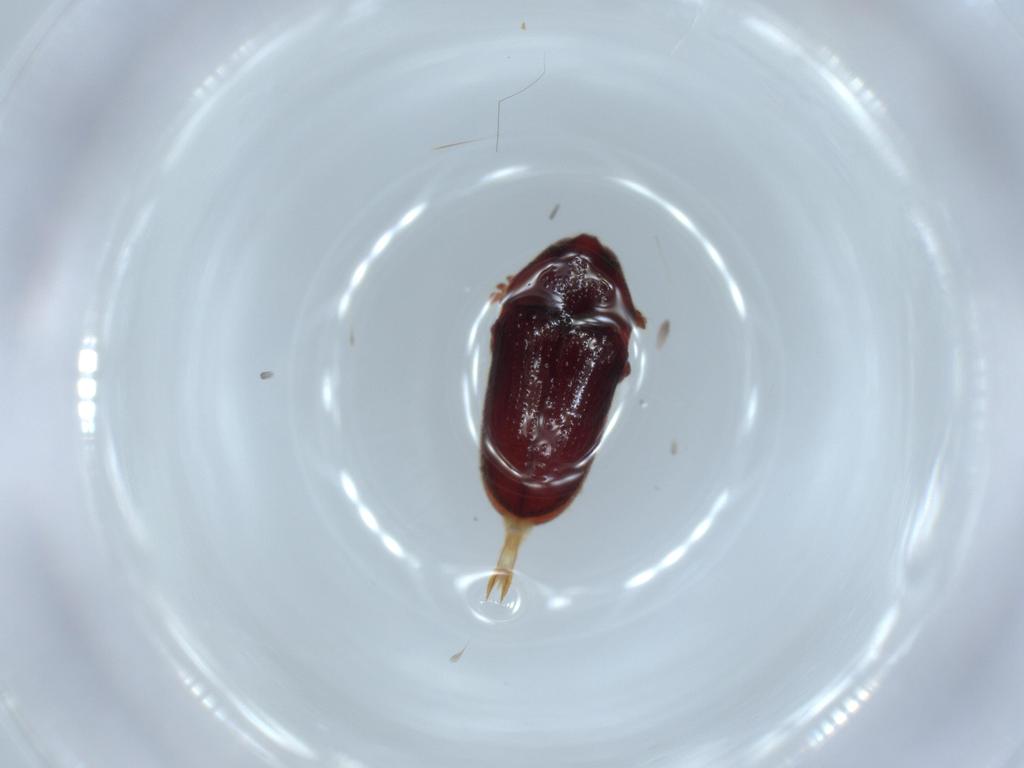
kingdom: Animalia
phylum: Arthropoda
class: Insecta
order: Coleoptera
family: Throscidae
